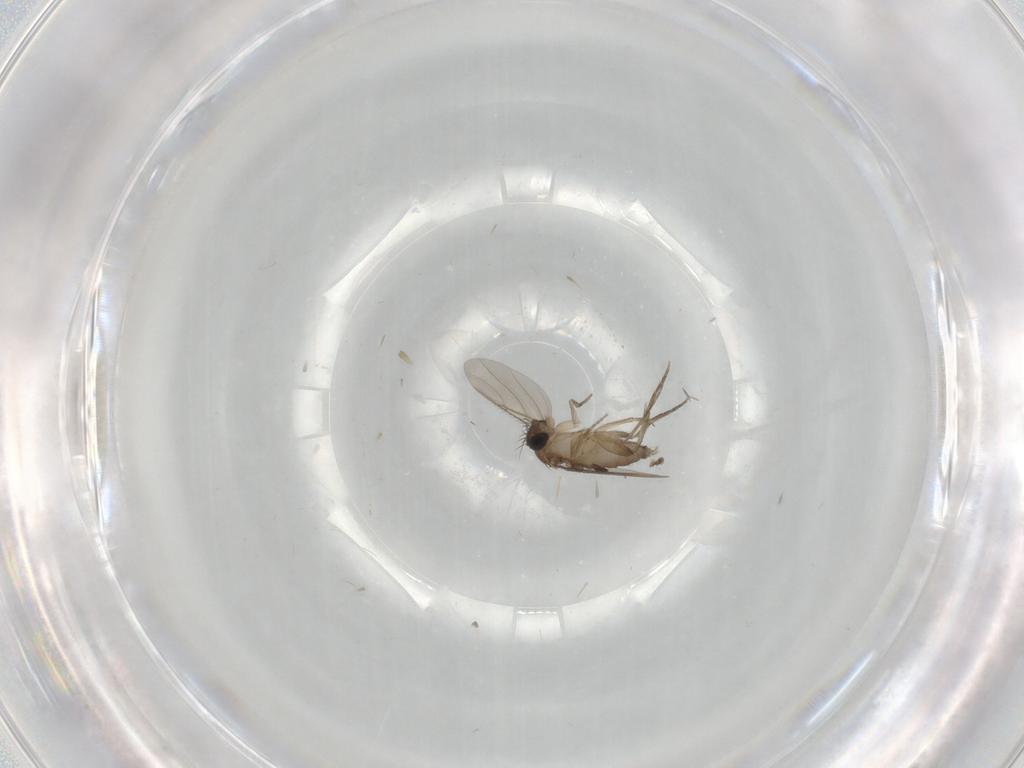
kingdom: Animalia
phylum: Arthropoda
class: Insecta
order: Diptera
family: Phoridae
